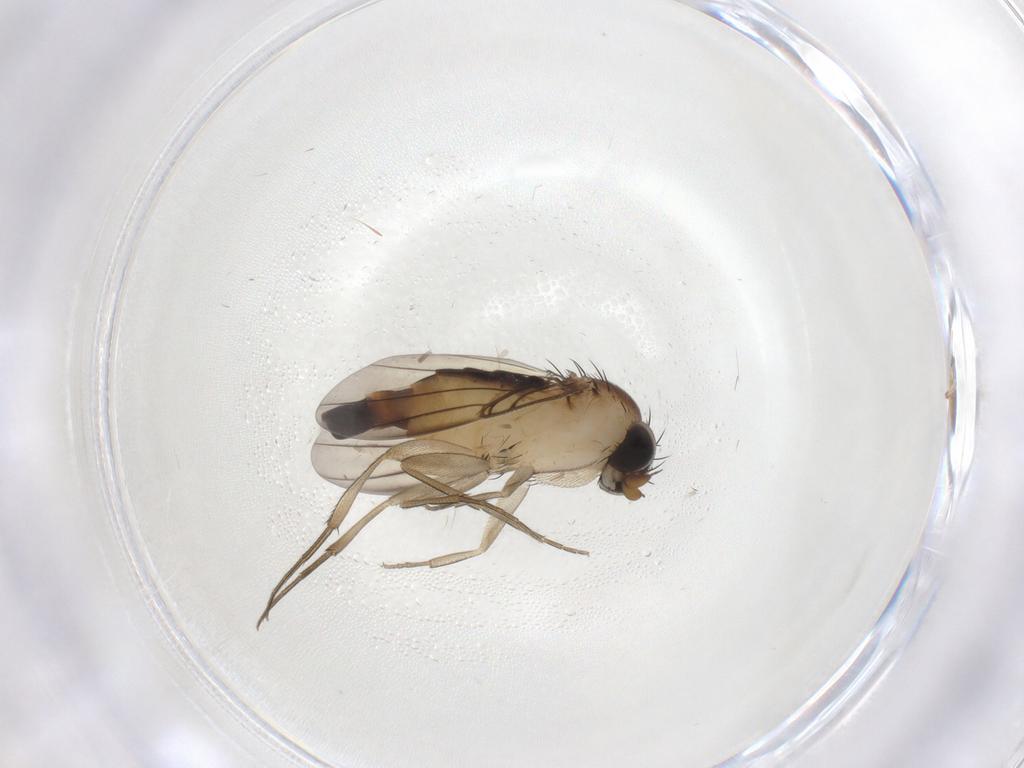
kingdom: Animalia
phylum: Arthropoda
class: Insecta
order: Diptera
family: Phoridae
